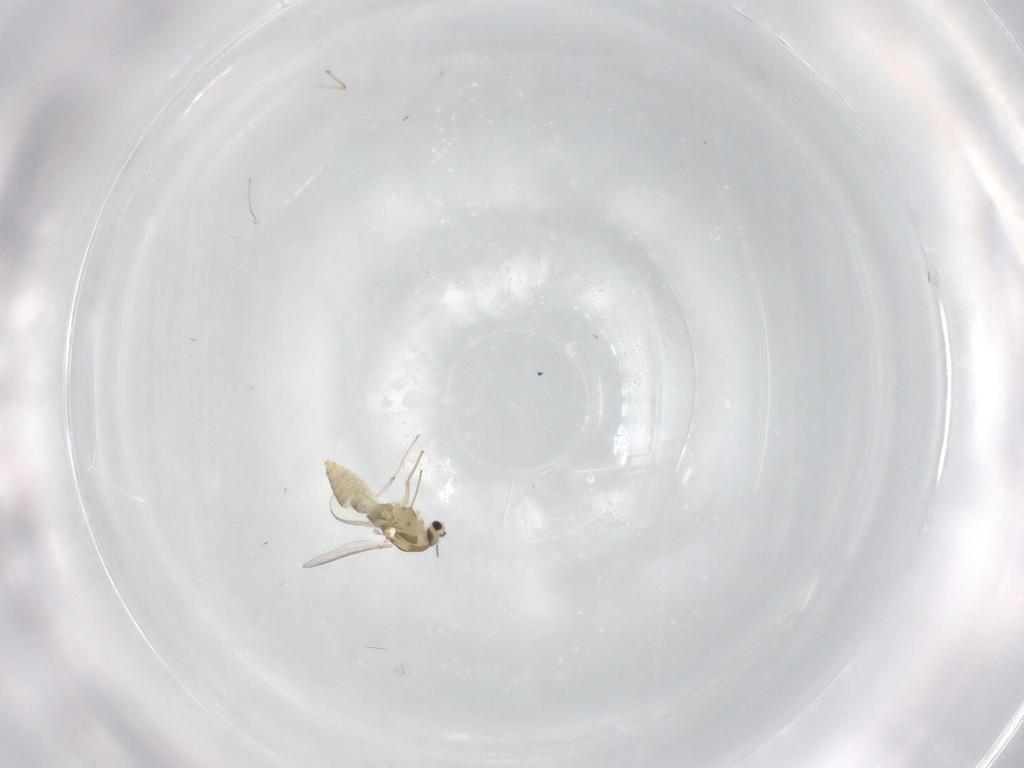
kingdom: Animalia
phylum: Arthropoda
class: Insecta
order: Diptera
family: Chironomidae
